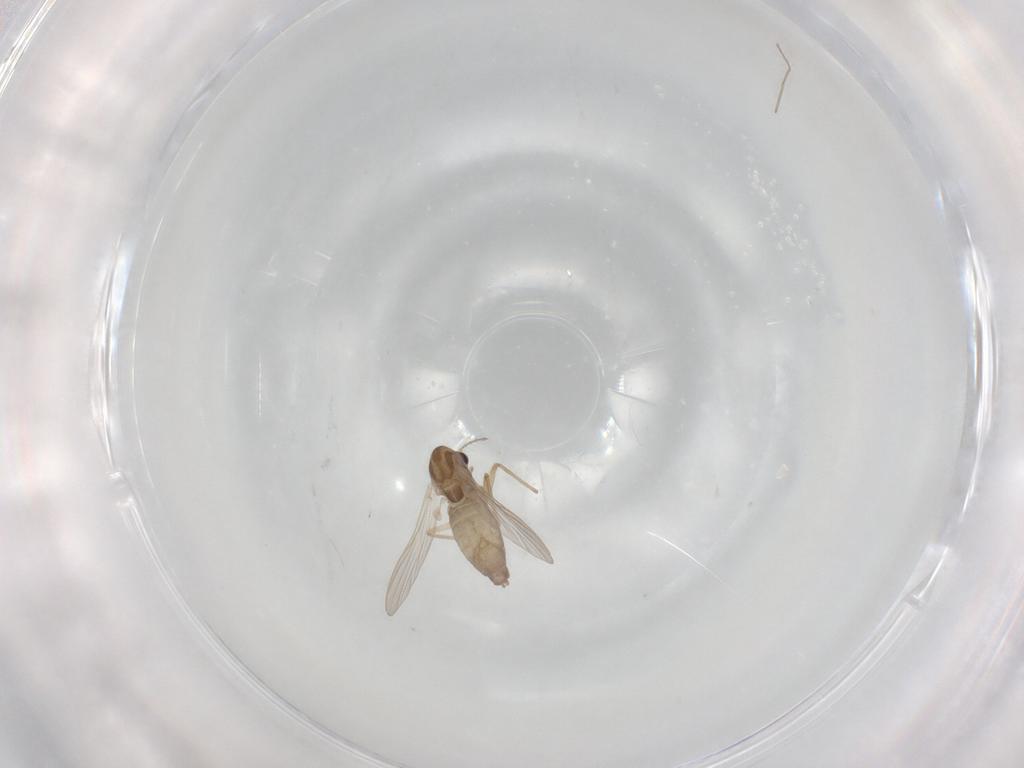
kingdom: Animalia
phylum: Arthropoda
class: Insecta
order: Diptera
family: Chironomidae
